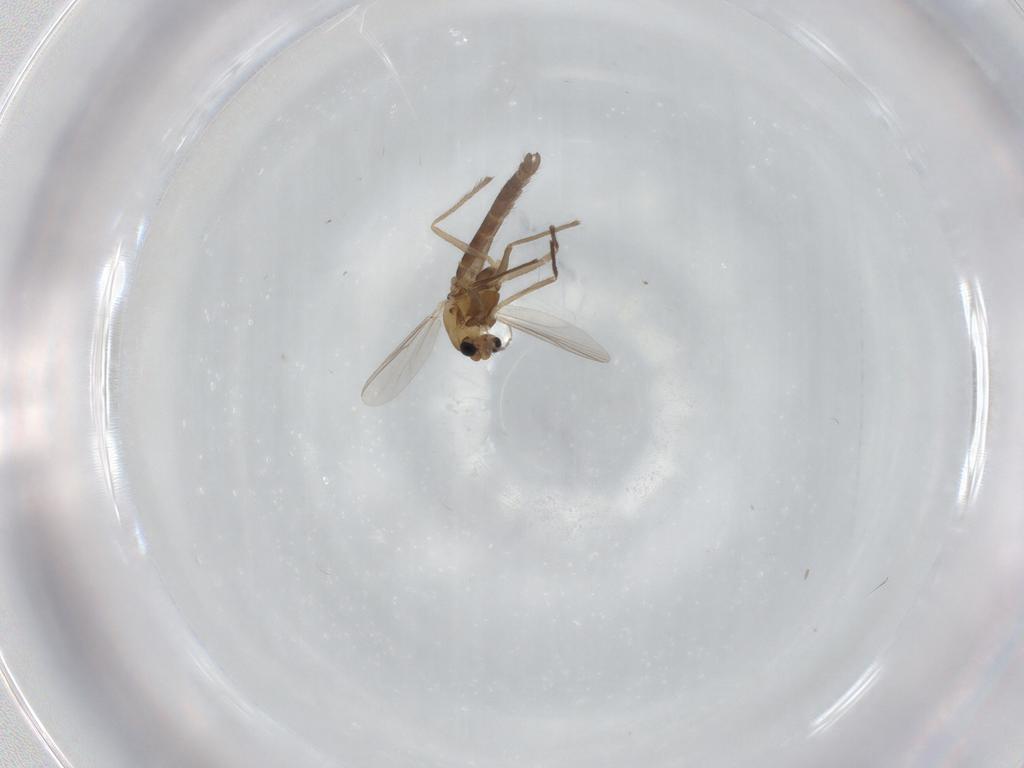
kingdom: Animalia
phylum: Arthropoda
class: Insecta
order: Diptera
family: Chironomidae
